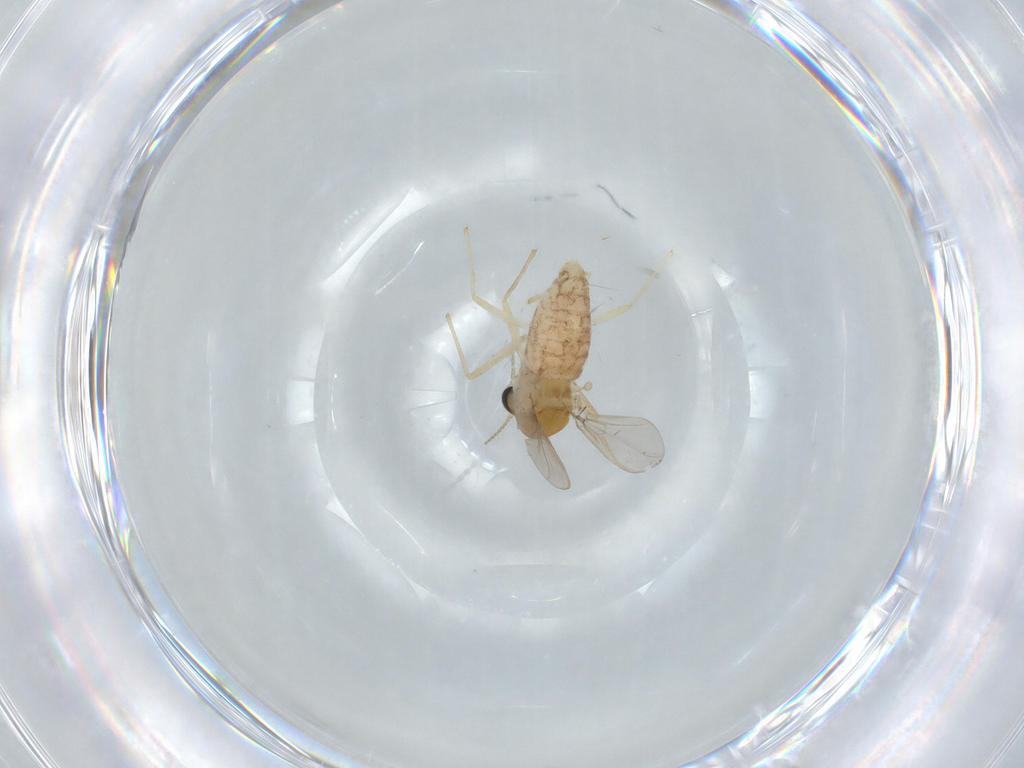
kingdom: Animalia
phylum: Arthropoda
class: Insecta
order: Diptera
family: Chironomidae
